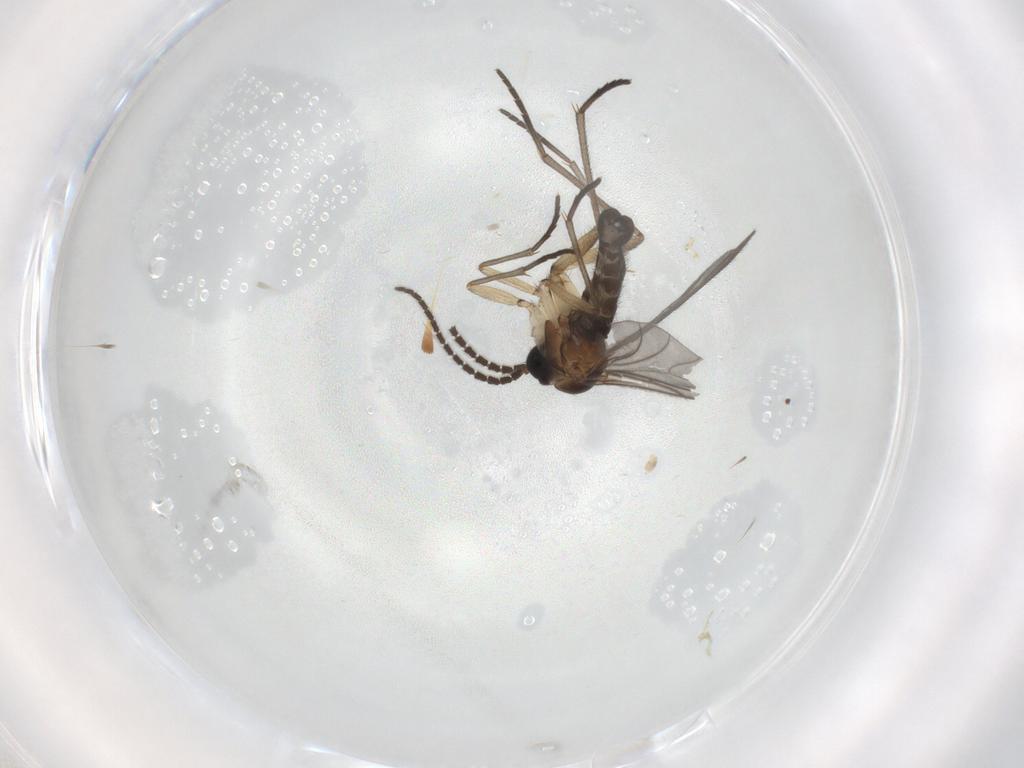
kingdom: Animalia
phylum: Arthropoda
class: Insecta
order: Diptera
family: Sciaridae
